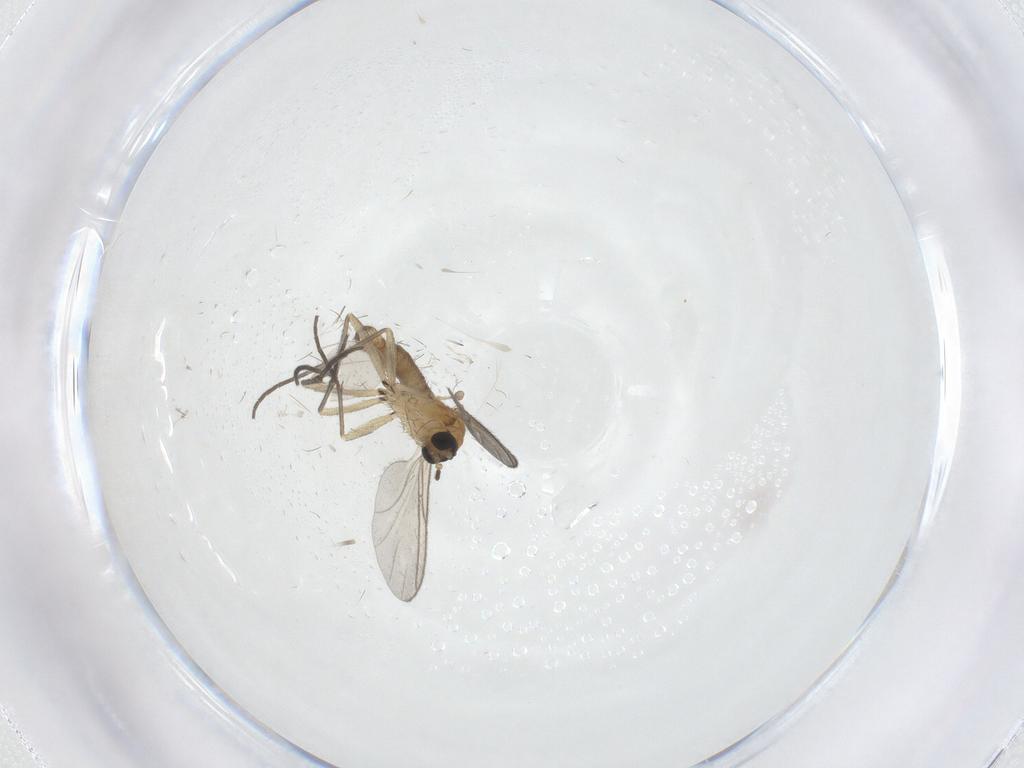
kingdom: Animalia
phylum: Arthropoda
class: Insecta
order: Diptera
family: Sciaridae
